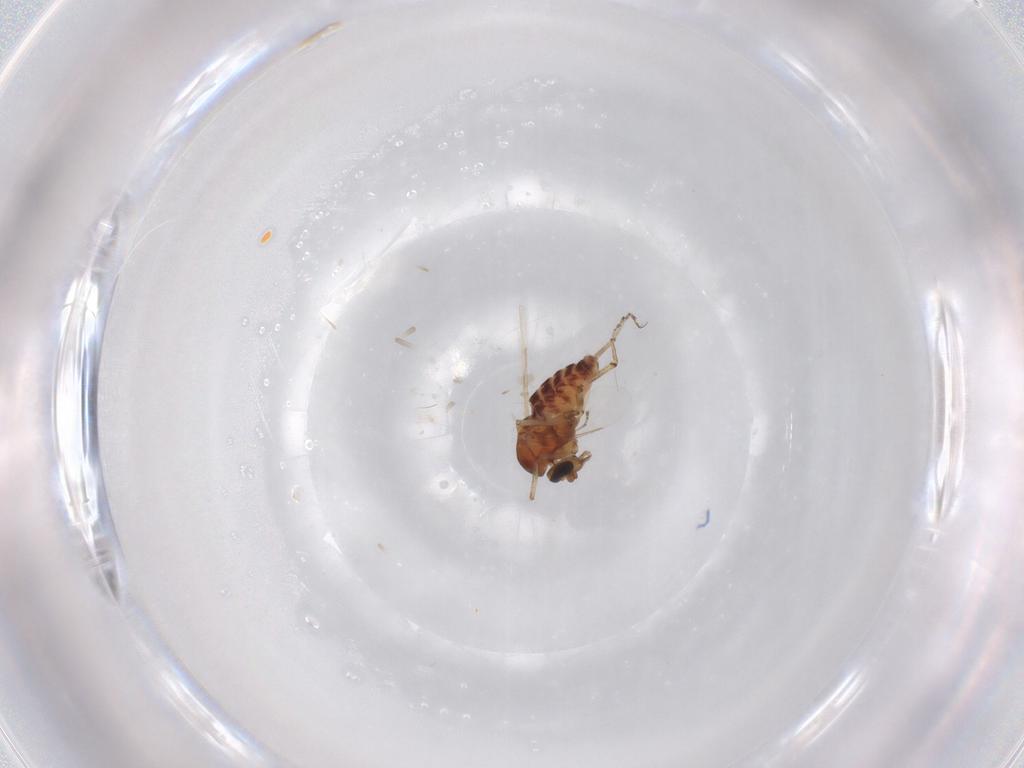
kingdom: Animalia
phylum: Arthropoda
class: Insecta
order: Diptera
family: Ceratopogonidae
